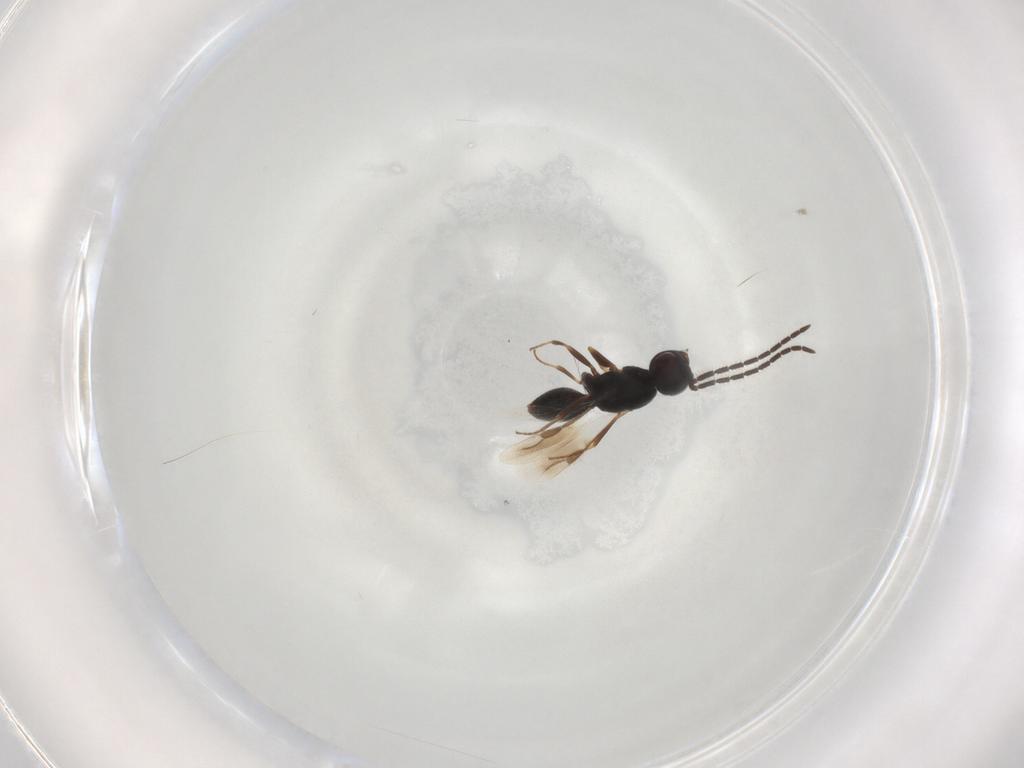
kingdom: Animalia
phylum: Arthropoda
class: Insecta
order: Hymenoptera
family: Megaspilidae
